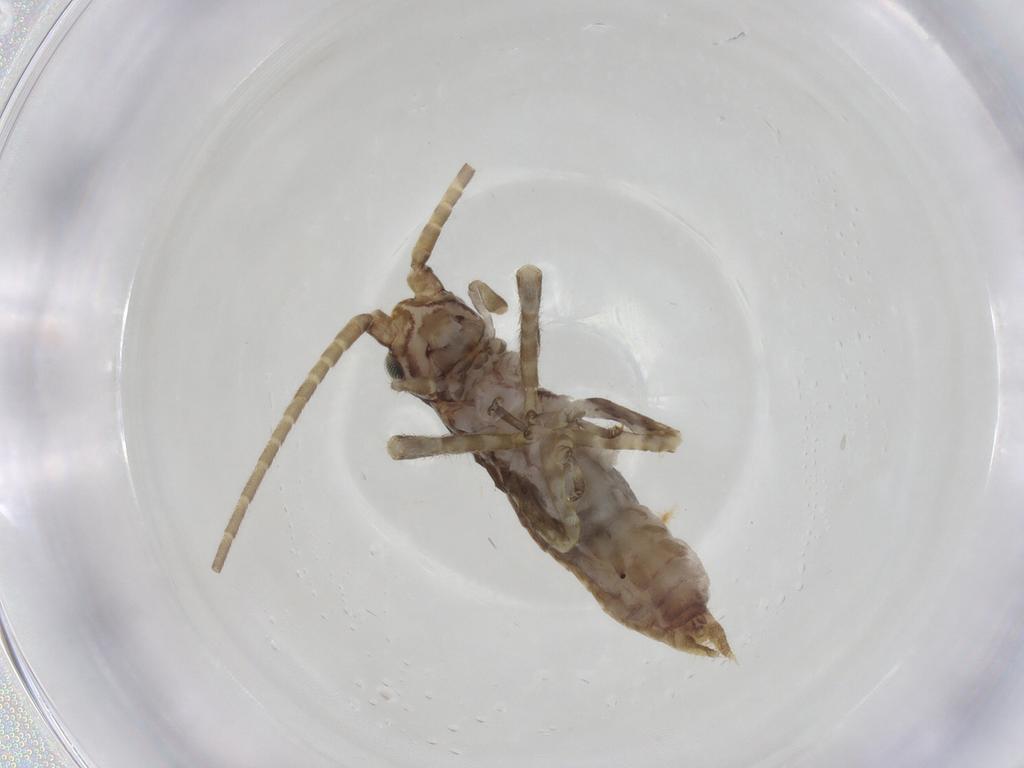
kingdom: Animalia
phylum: Arthropoda
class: Insecta
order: Orthoptera
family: Gryllidae
